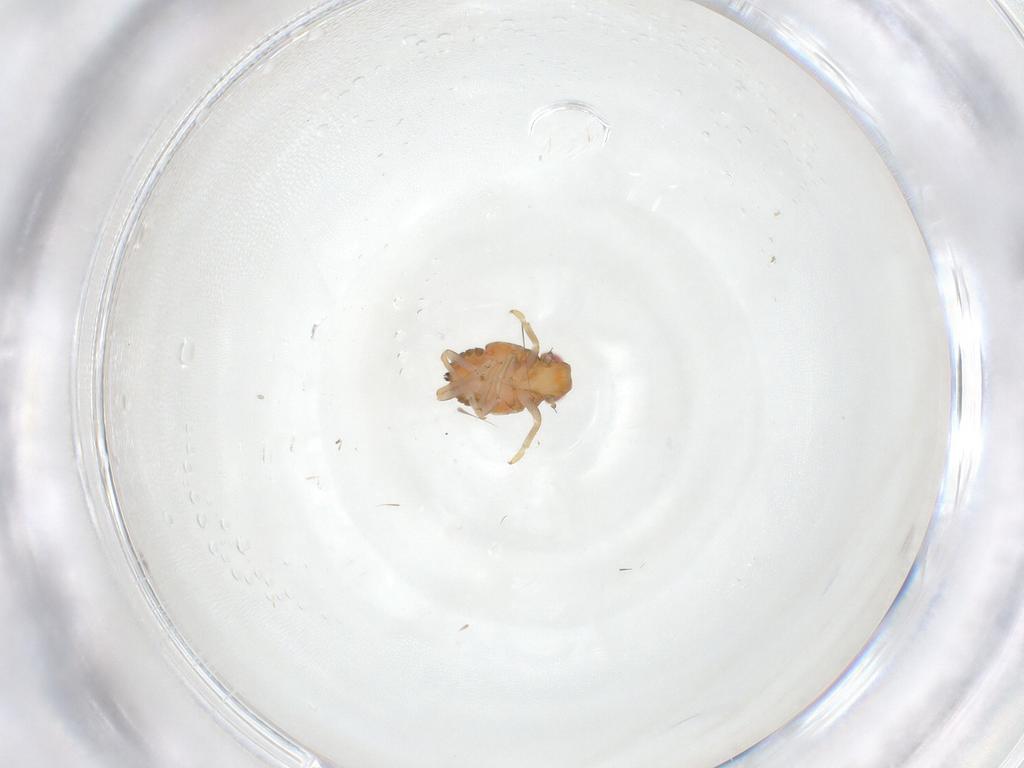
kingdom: Animalia
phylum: Arthropoda
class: Insecta
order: Hemiptera
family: Issidae
